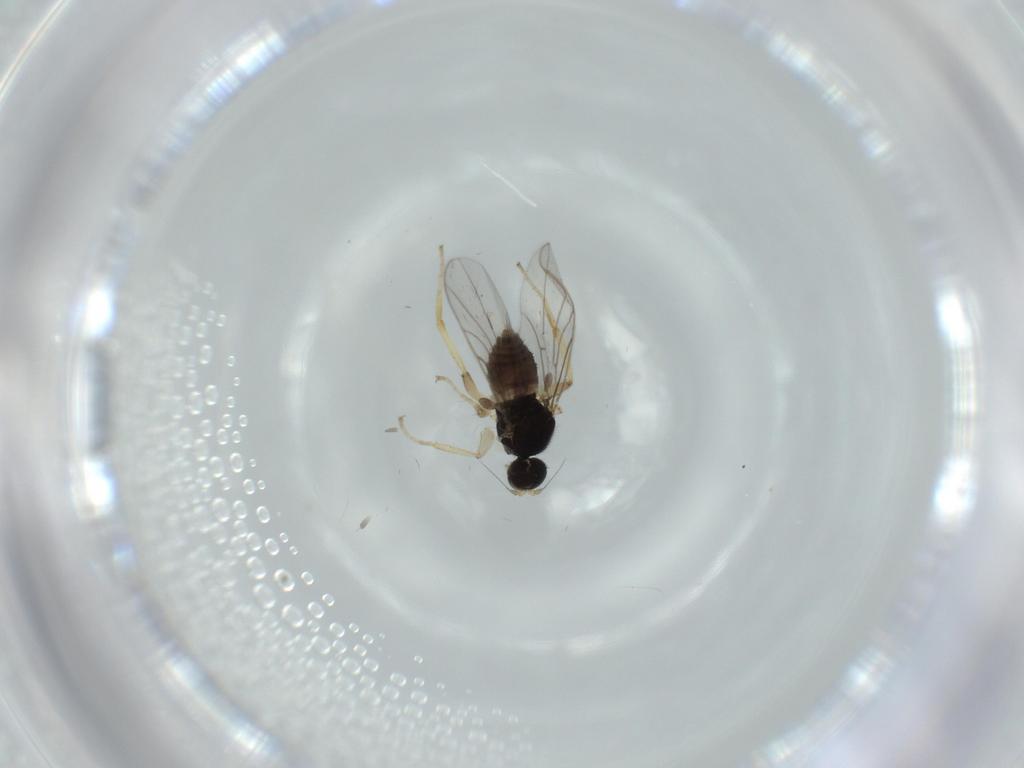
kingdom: Animalia
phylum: Arthropoda
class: Insecta
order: Diptera
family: Hybotidae
